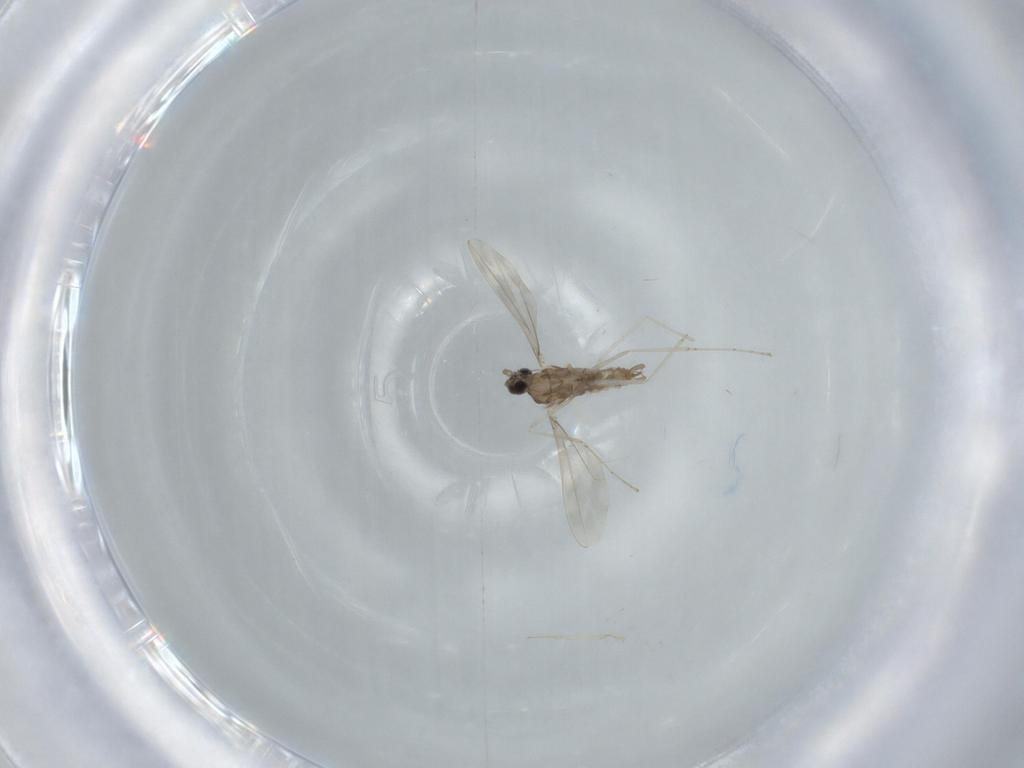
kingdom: Animalia
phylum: Arthropoda
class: Insecta
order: Diptera
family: Cecidomyiidae
